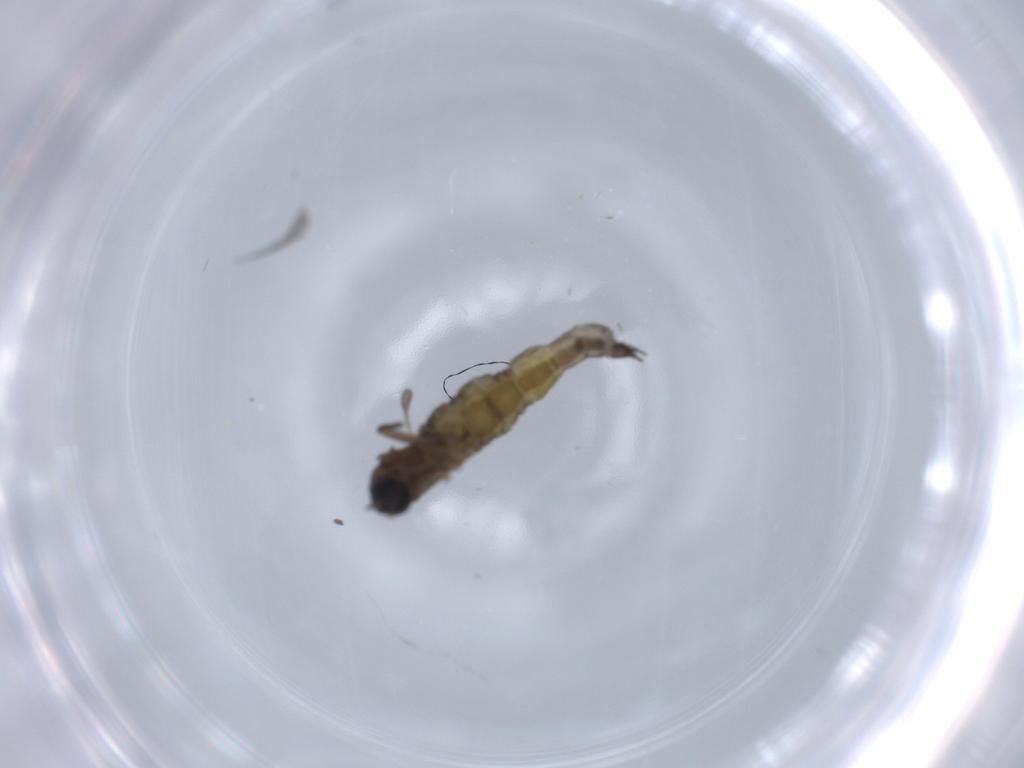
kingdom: Animalia
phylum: Arthropoda
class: Insecta
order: Diptera
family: Sciaridae
